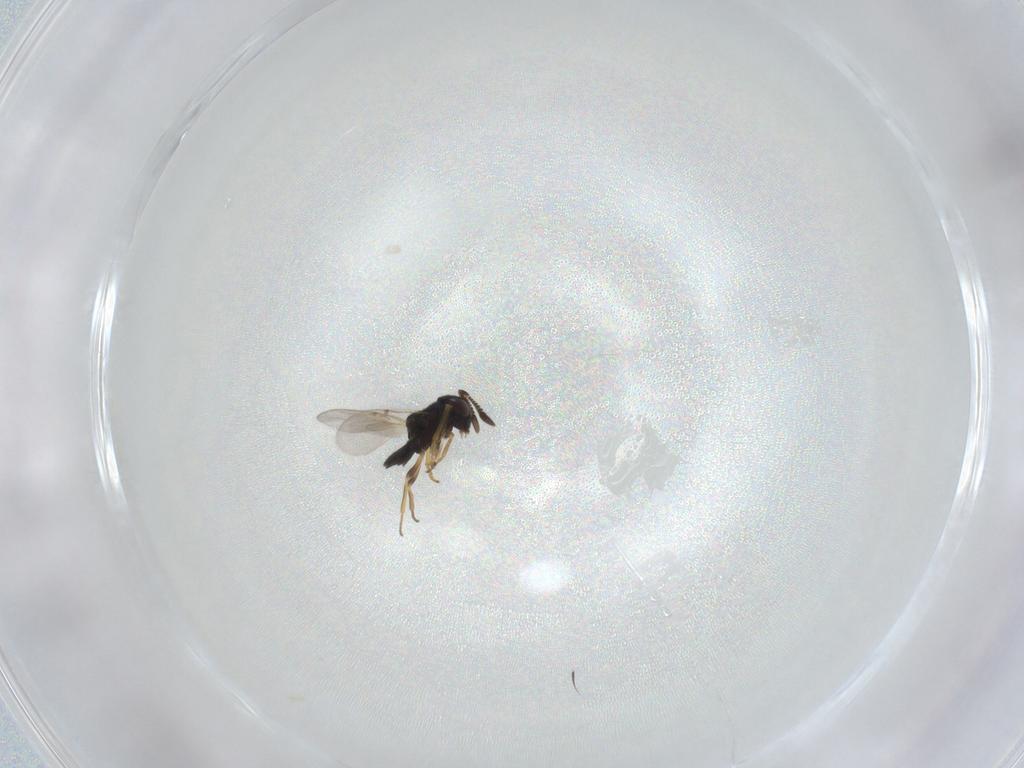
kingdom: Animalia
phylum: Arthropoda
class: Insecta
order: Hymenoptera
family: Encyrtidae
